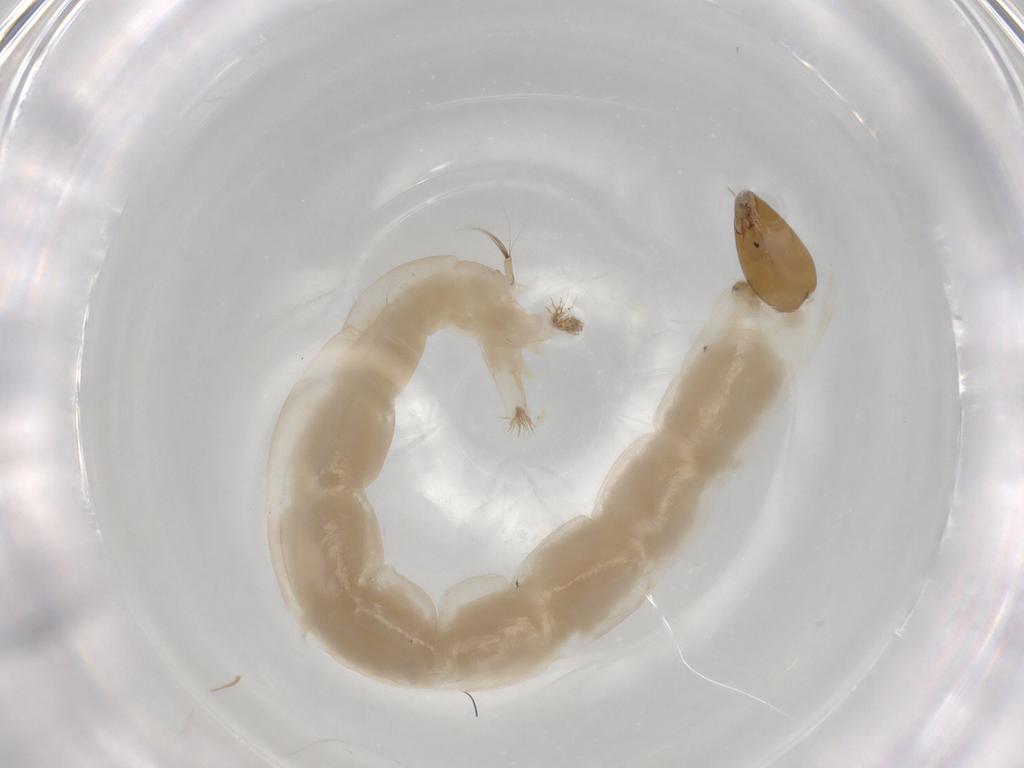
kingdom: Animalia
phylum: Arthropoda
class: Insecta
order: Diptera
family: Chironomidae
